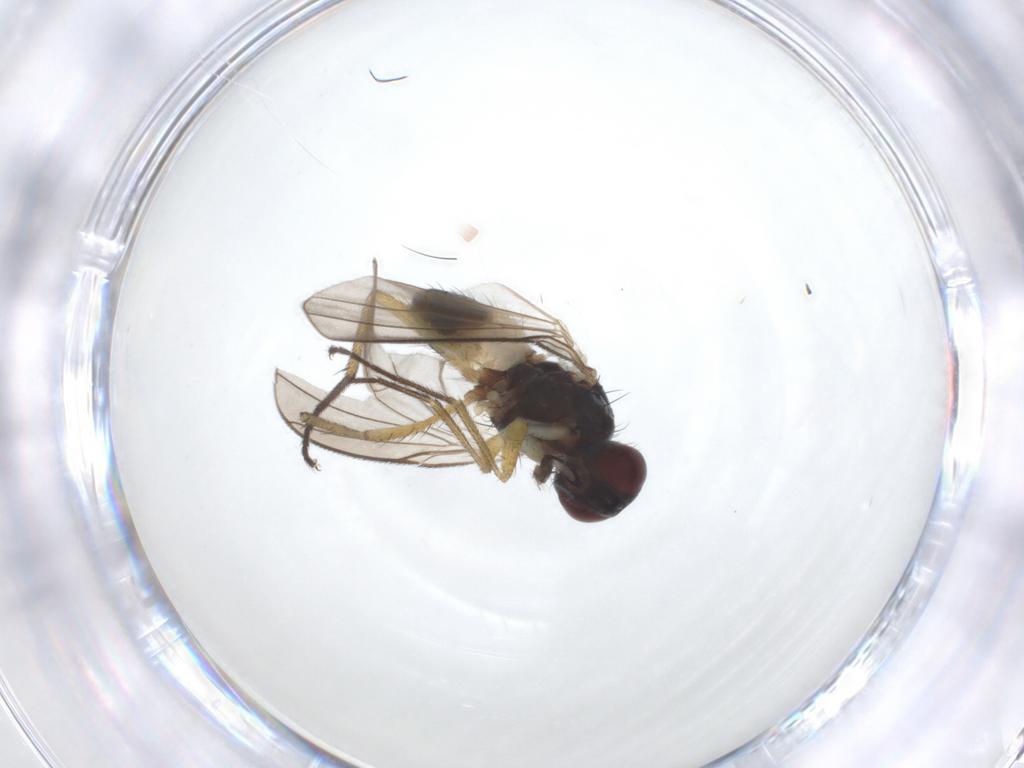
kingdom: Animalia
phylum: Arthropoda
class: Insecta
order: Diptera
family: Muscidae
